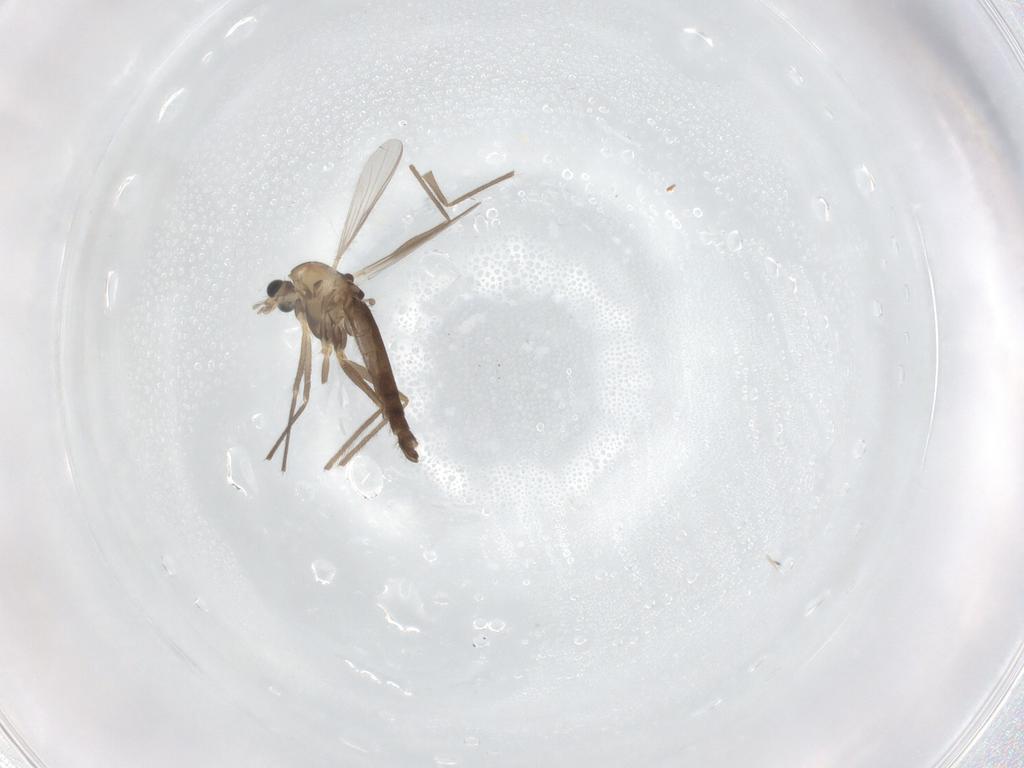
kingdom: Animalia
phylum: Arthropoda
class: Insecta
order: Diptera
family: Chironomidae
